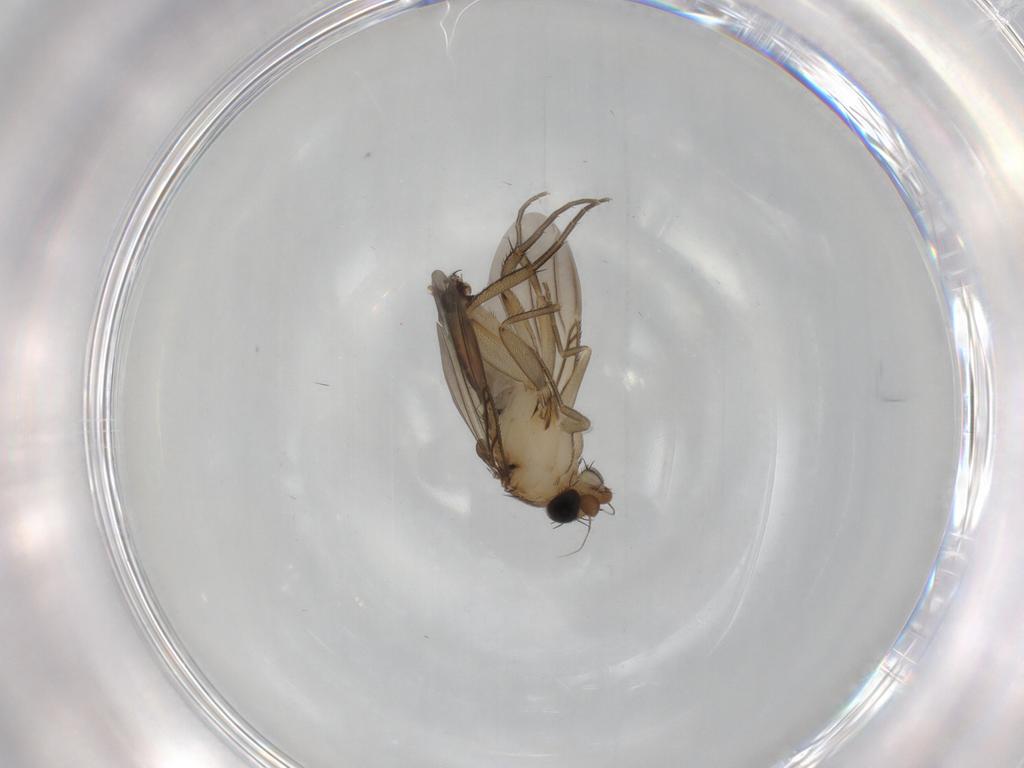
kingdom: Animalia
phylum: Arthropoda
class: Insecta
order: Diptera
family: Phoridae
